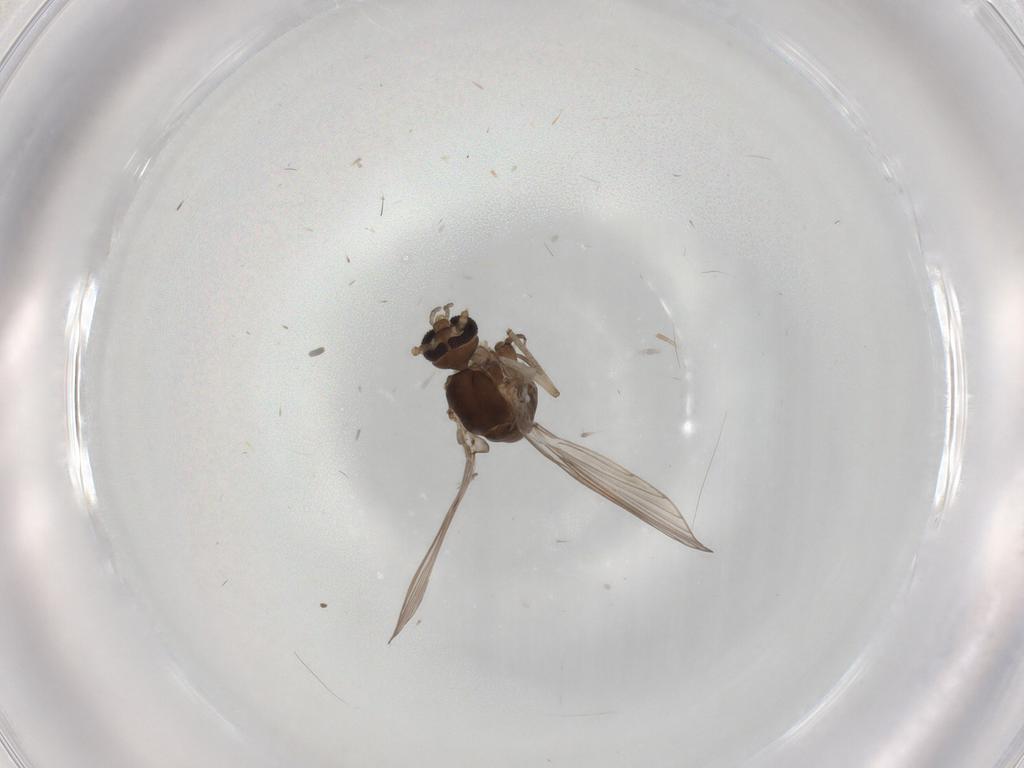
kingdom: Animalia
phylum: Arthropoda
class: Insecta
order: Diptera
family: Psychodidae
